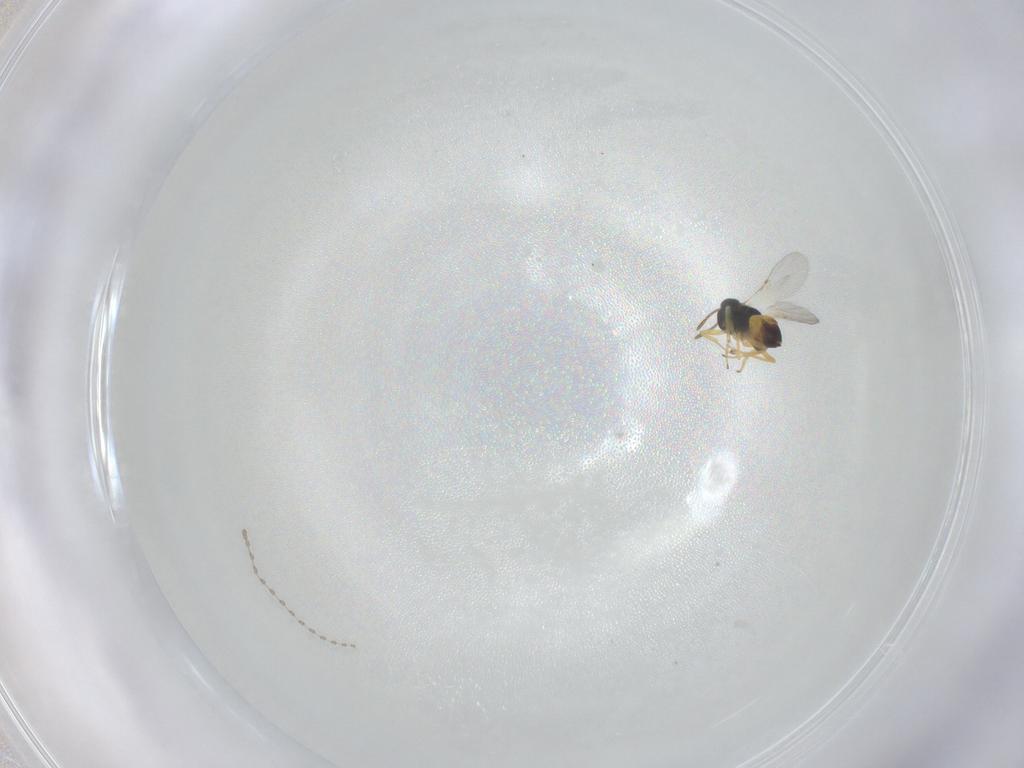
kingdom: Animalia
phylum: Arthropoda
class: Insecta
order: Hymenoptera
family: Encyrtidae
